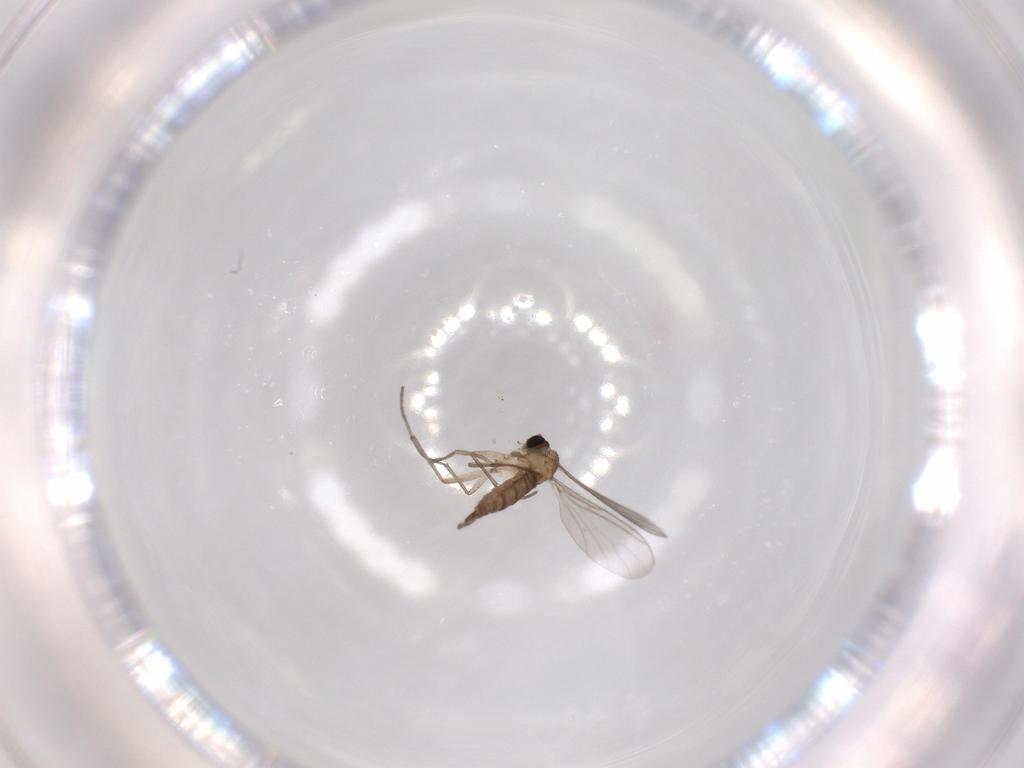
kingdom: Animalia
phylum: Arthropoda
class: Insecta
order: Diptera
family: Sciaridae
